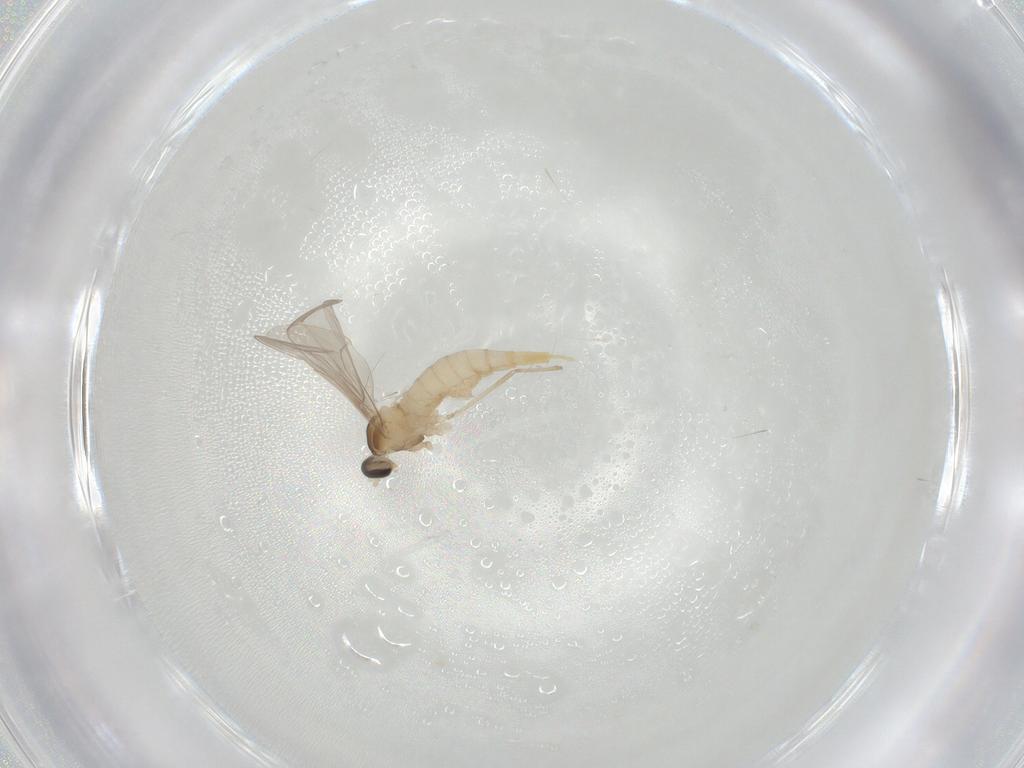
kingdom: Animalia
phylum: Arthropoda
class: Insecta
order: Diptera
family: Cecidomyiidae
